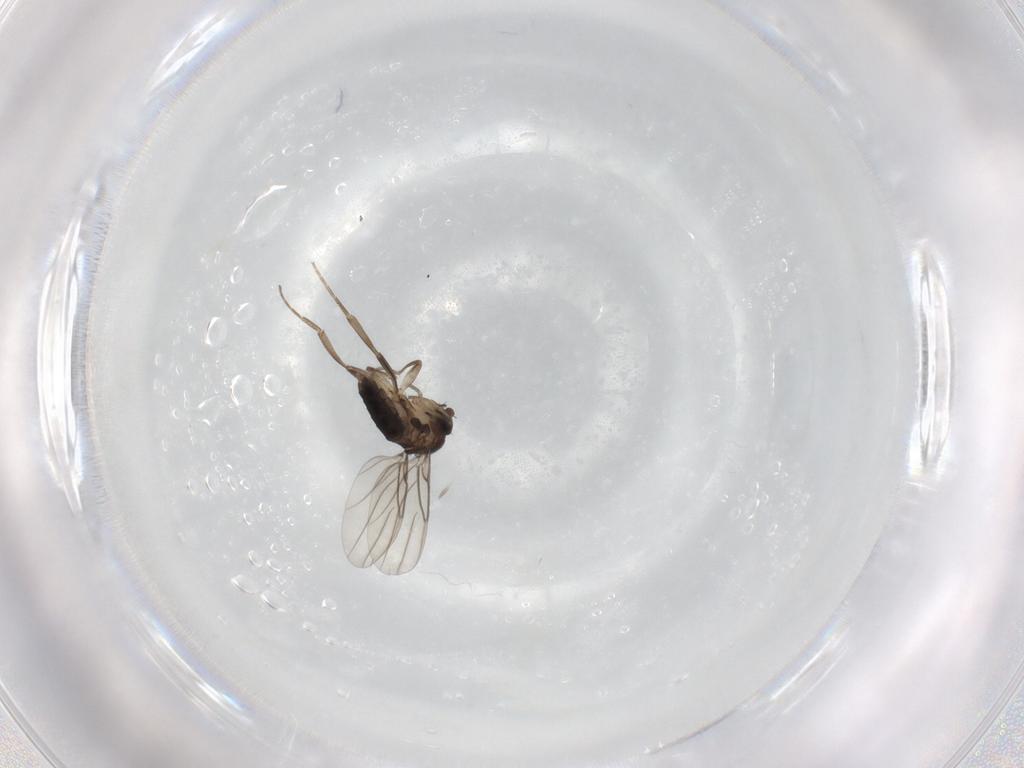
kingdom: Animalia
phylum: Arthropoda
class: Insecta
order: Diptera
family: Phoridae
